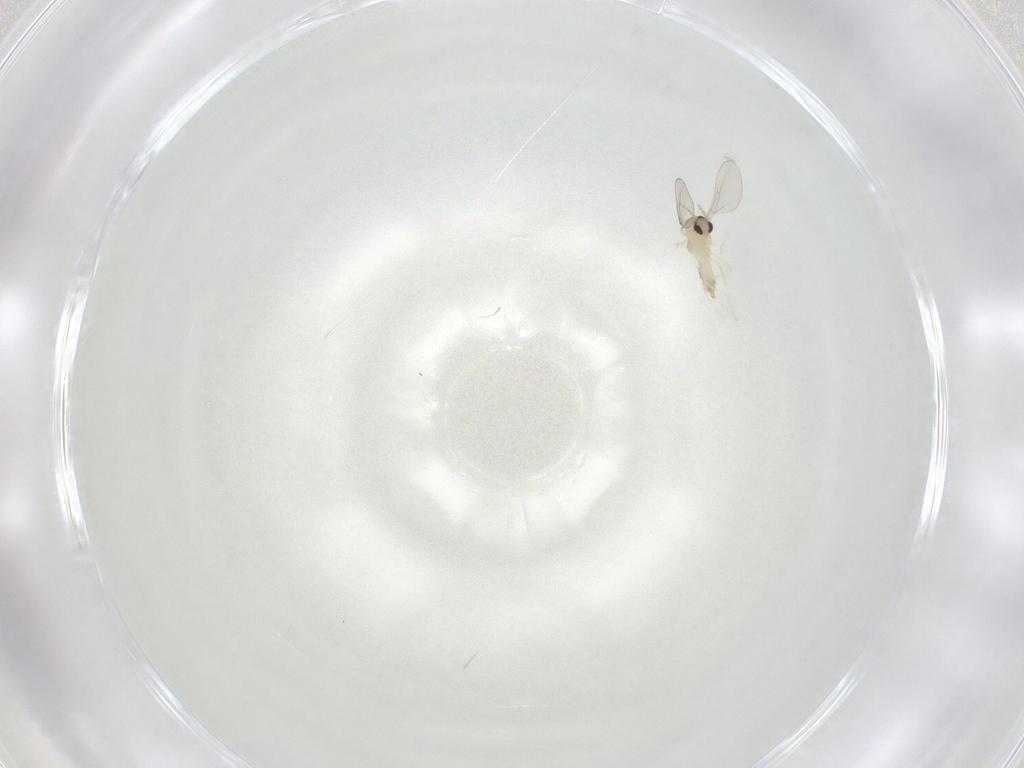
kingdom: Animalia
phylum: Arthropoda
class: Insecta
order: Diptera
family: Cecidomyiidae
